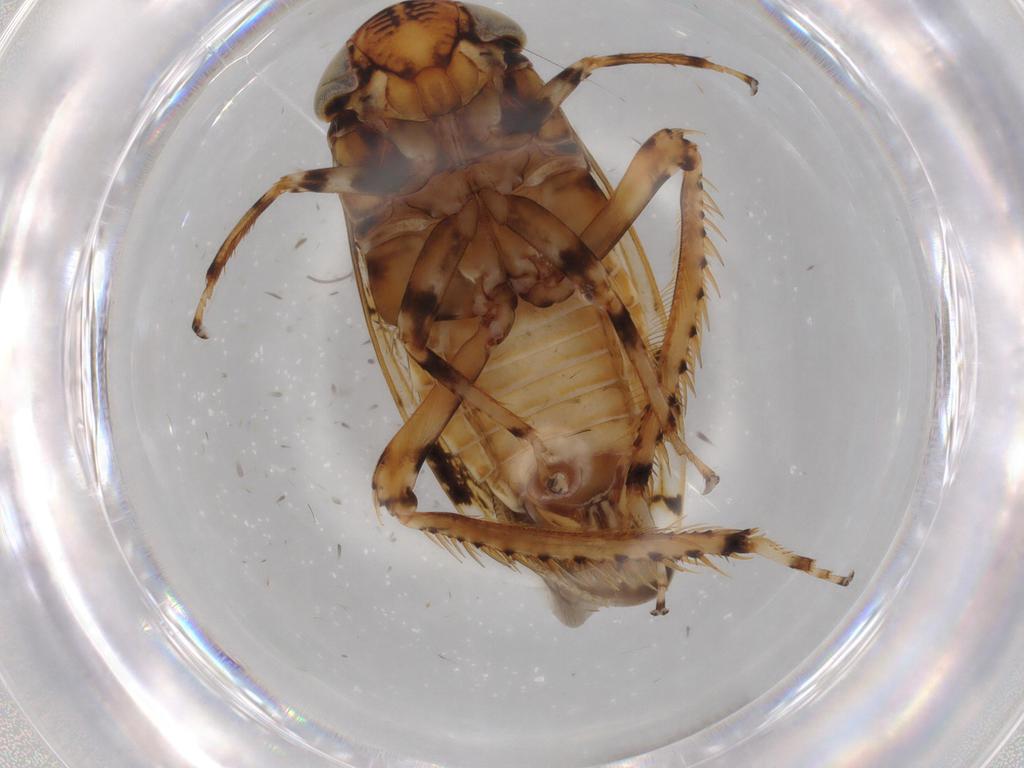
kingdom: Animalia
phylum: Arthropoda
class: Insecta
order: Hemiptera
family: Cicadellidae
